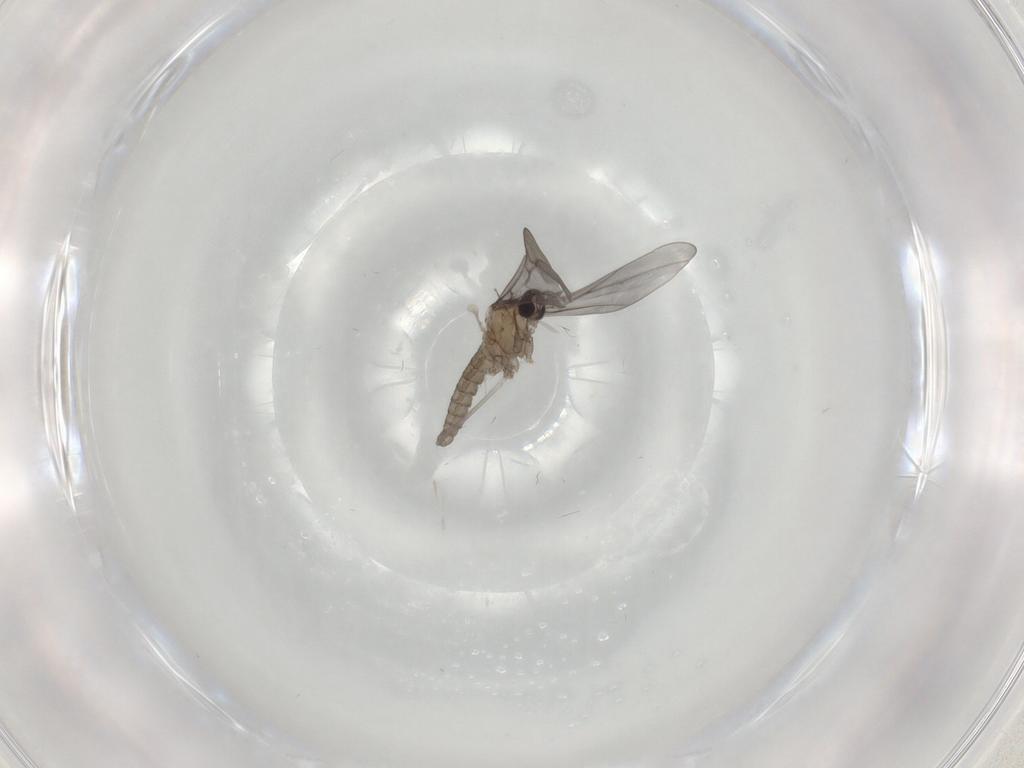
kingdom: Animalia
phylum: Arthropoda
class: Insecta
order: Diptera
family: Cecidomyiidae
